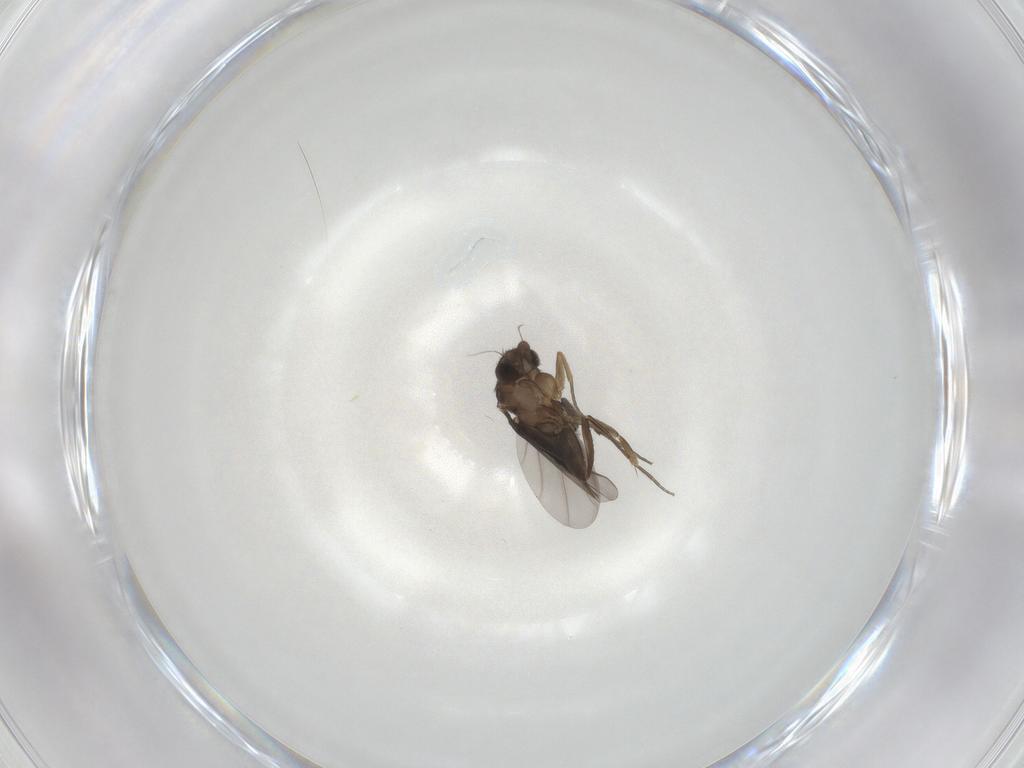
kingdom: Animalia
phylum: Arthropoda
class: Insecta
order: Diptera
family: Phoridae
